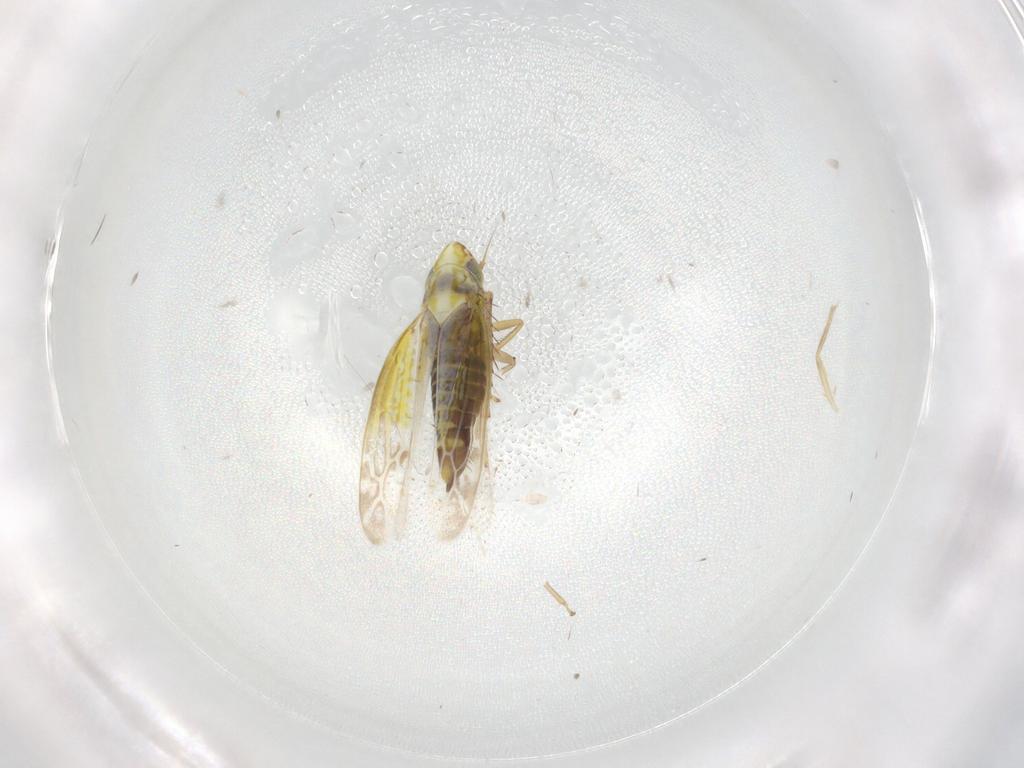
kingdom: Animalia
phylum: Arthropoda
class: Insecta
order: Hemiptera
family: Cicadellidae
